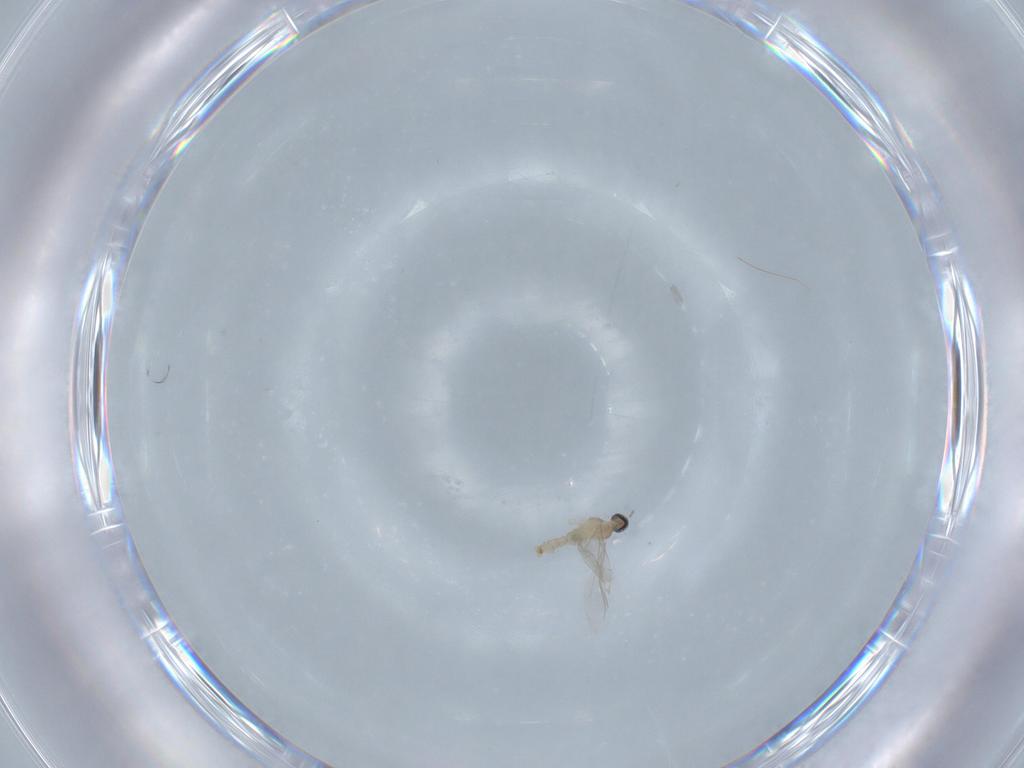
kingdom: Animalia
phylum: Arthropoda
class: Insecta
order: Diptera
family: Cecidomyiidae
